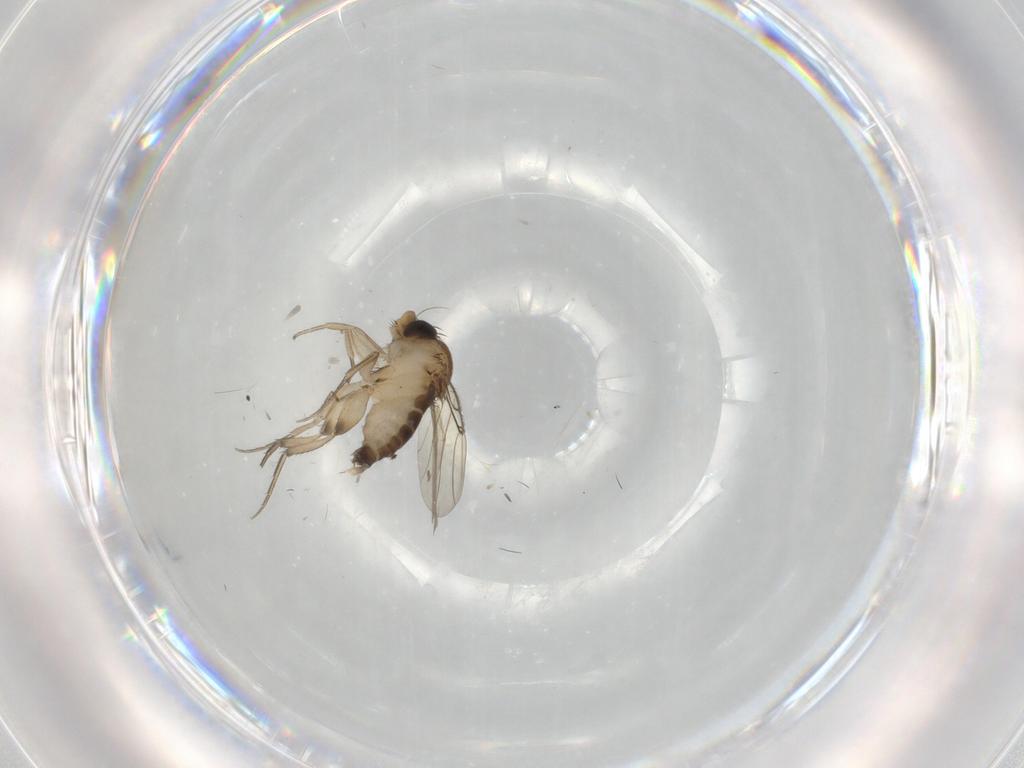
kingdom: Animalia
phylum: Arthropoda
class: Insecta
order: Diptera
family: Phoridae
